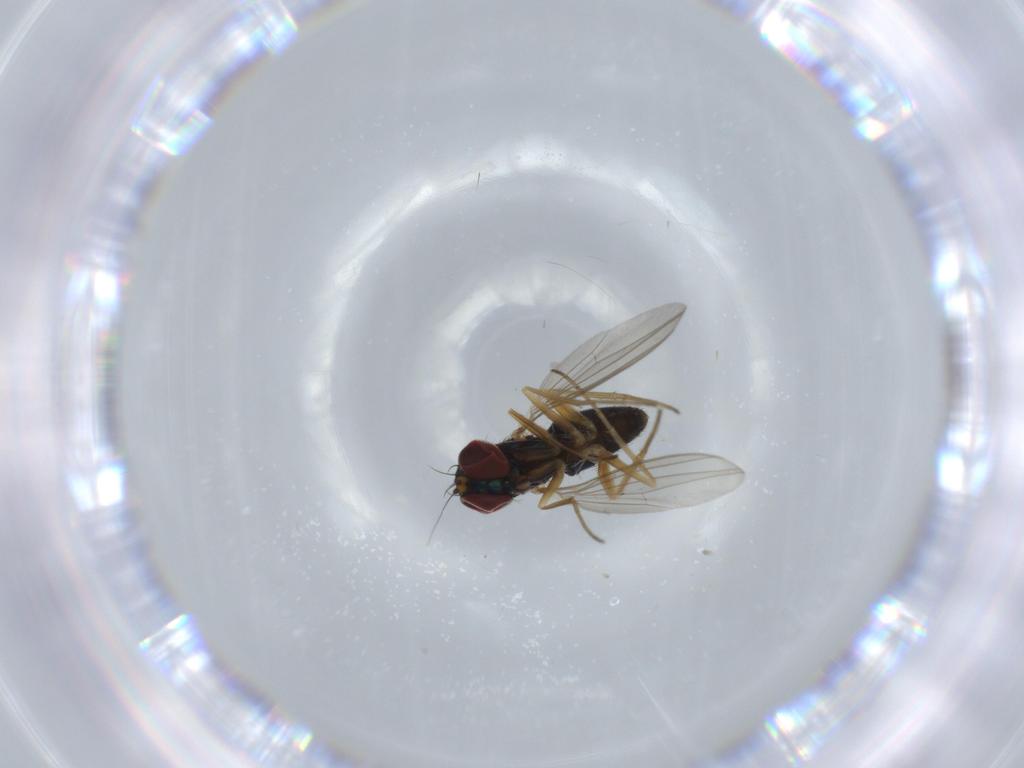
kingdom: Animalia
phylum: Arthropoda
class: Insecta
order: Diptera
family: Dolichopodidae
